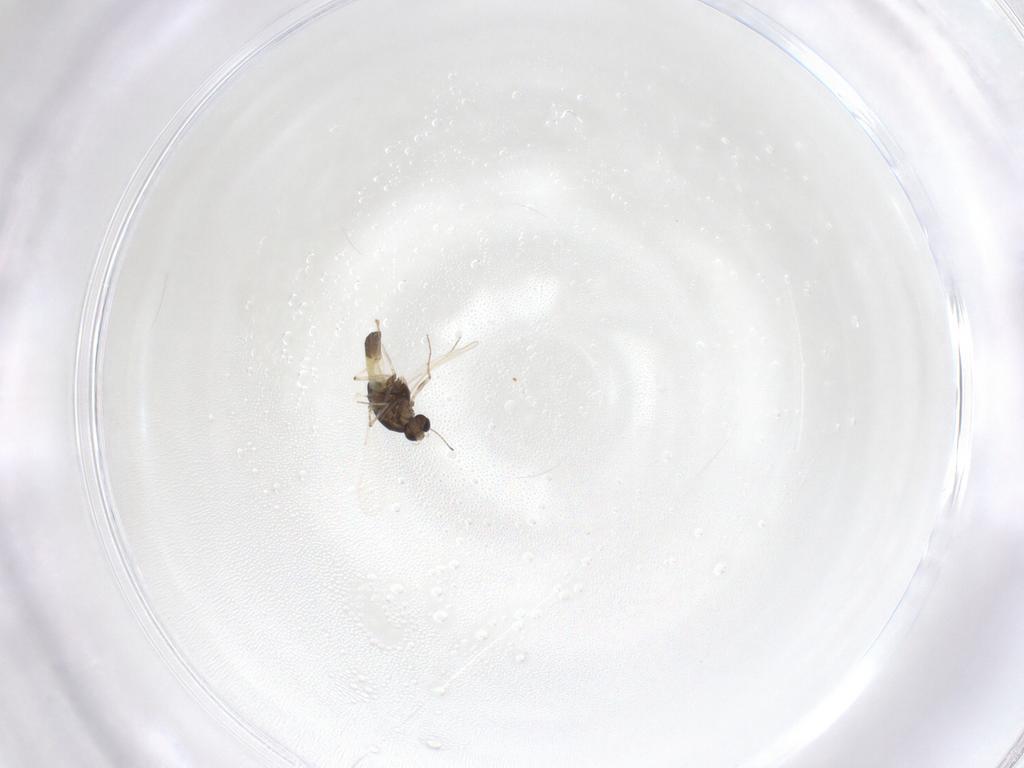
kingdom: Animalia
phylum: Arthropoda
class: Insecta
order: Diptera
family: Chironomidae
